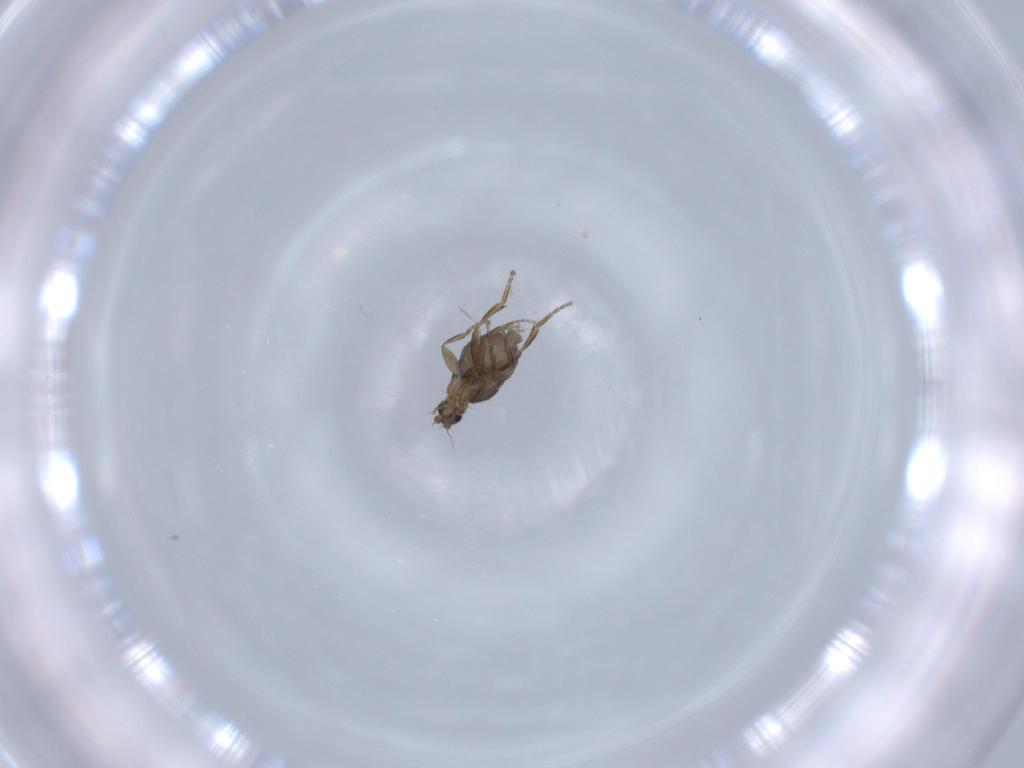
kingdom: Animalia
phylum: Arthropoda
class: Insecta
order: Diptera
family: Phoridae
